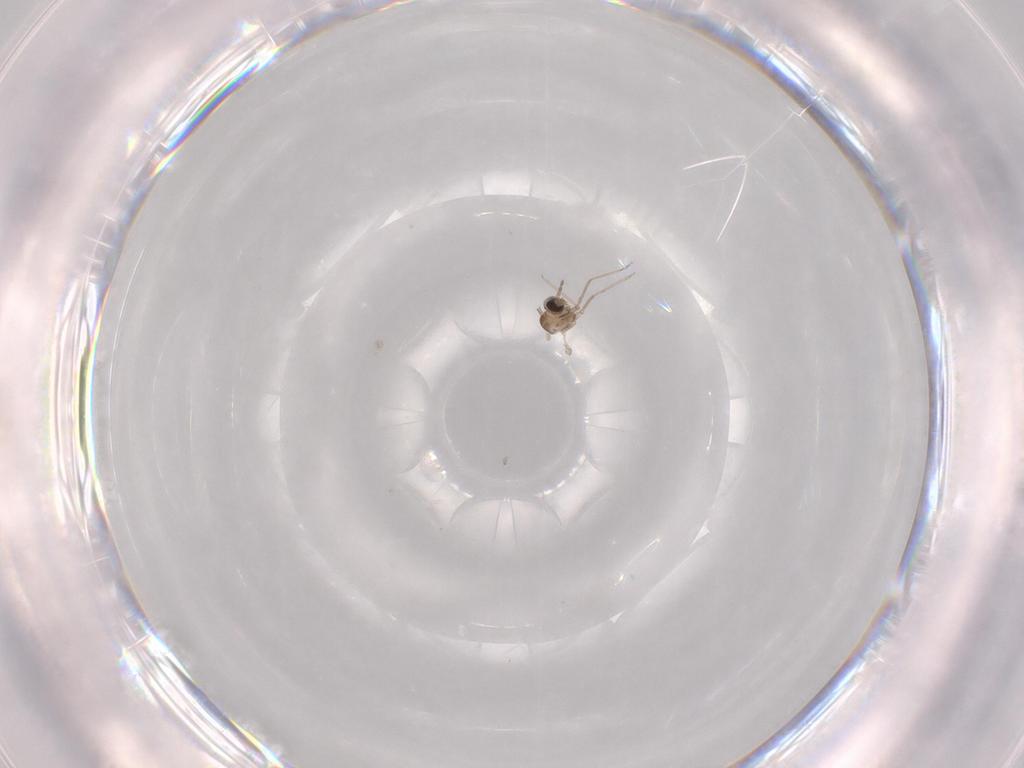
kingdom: Animalia
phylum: Arthropoda
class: Insecta
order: Diptera
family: Cecidomyiidae
